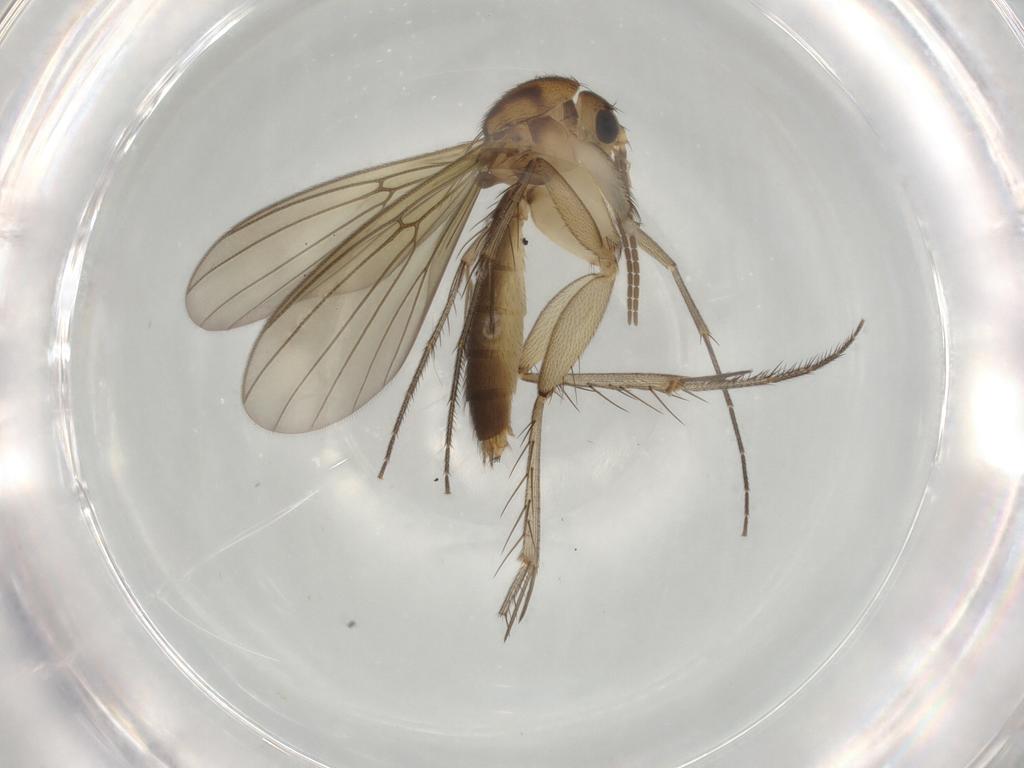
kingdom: Animalia
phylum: Arthropoda
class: Insecta
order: Diptera
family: Mycetophilidae
